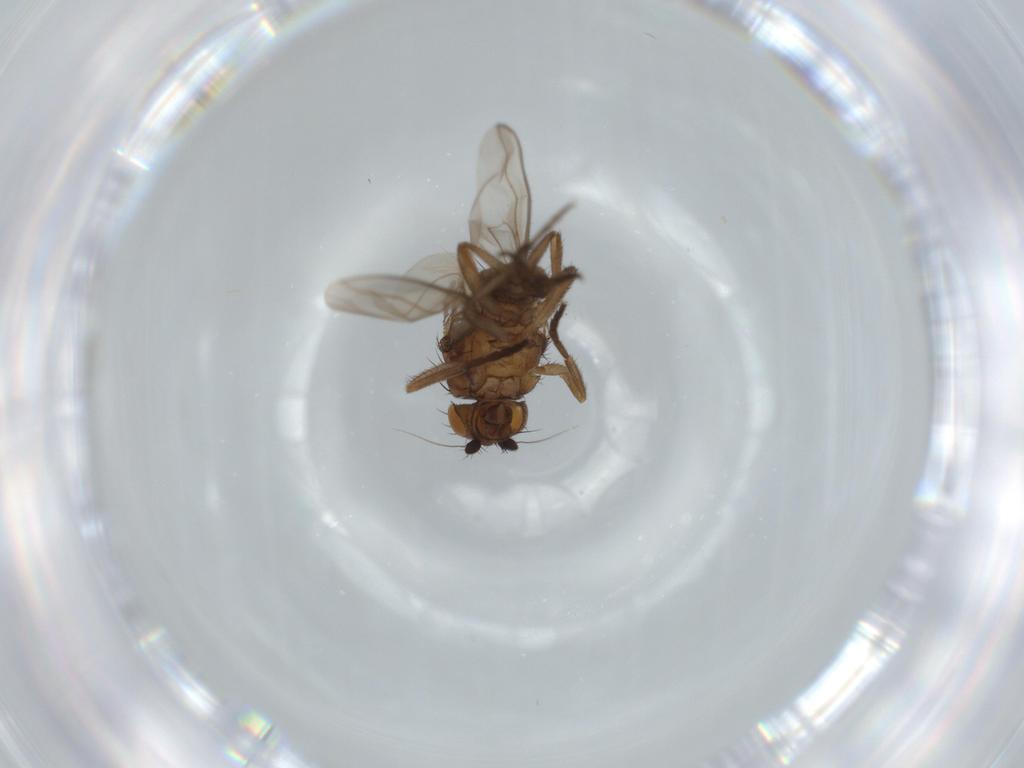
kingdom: Animalia
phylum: Arthropoda
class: Insecta
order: Diptera
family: Sphaeroceridae
